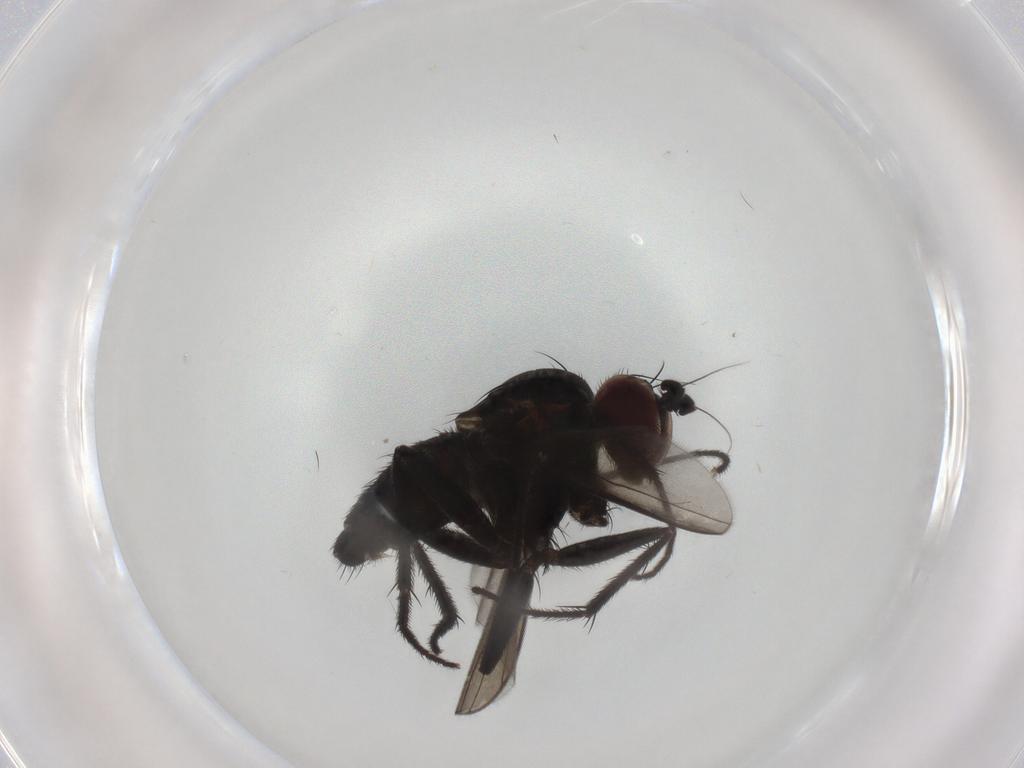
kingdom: Animalia
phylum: Arthropoda
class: Insecta
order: Diptera
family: Dolichopodidae
